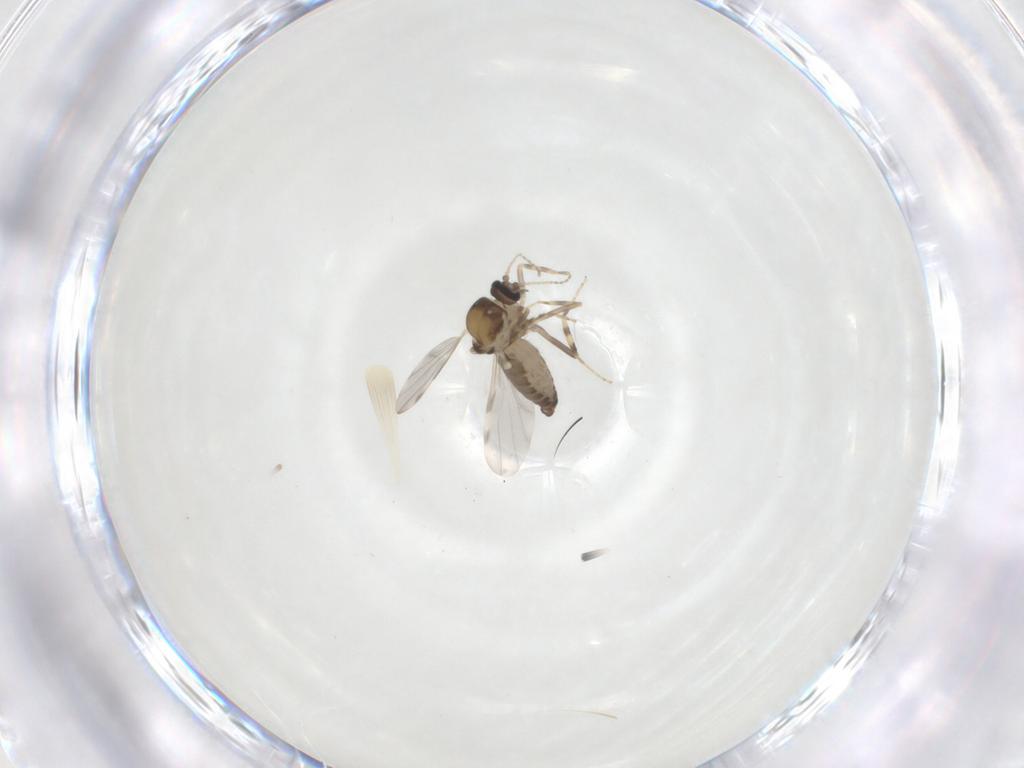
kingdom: Animalia
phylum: Arthropoda
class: Insecta
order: Diptera
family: Ceratopogonidae
